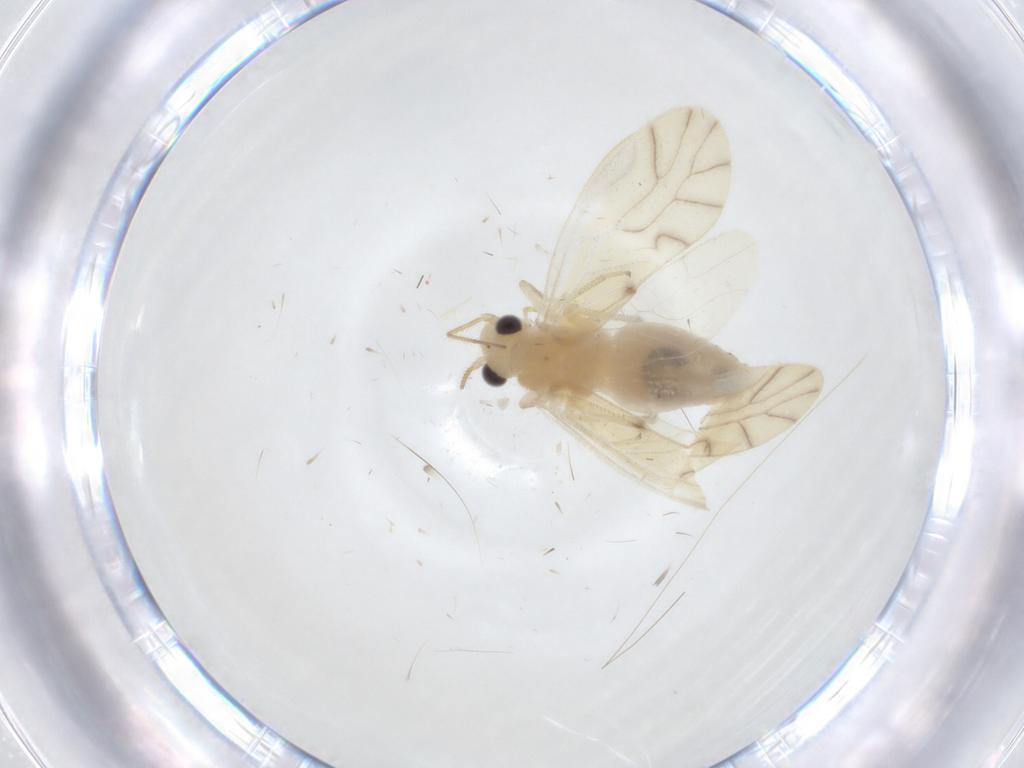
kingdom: Animalia
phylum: Arthropoda
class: Insecta
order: Psocodea
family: Caeciliusidae
